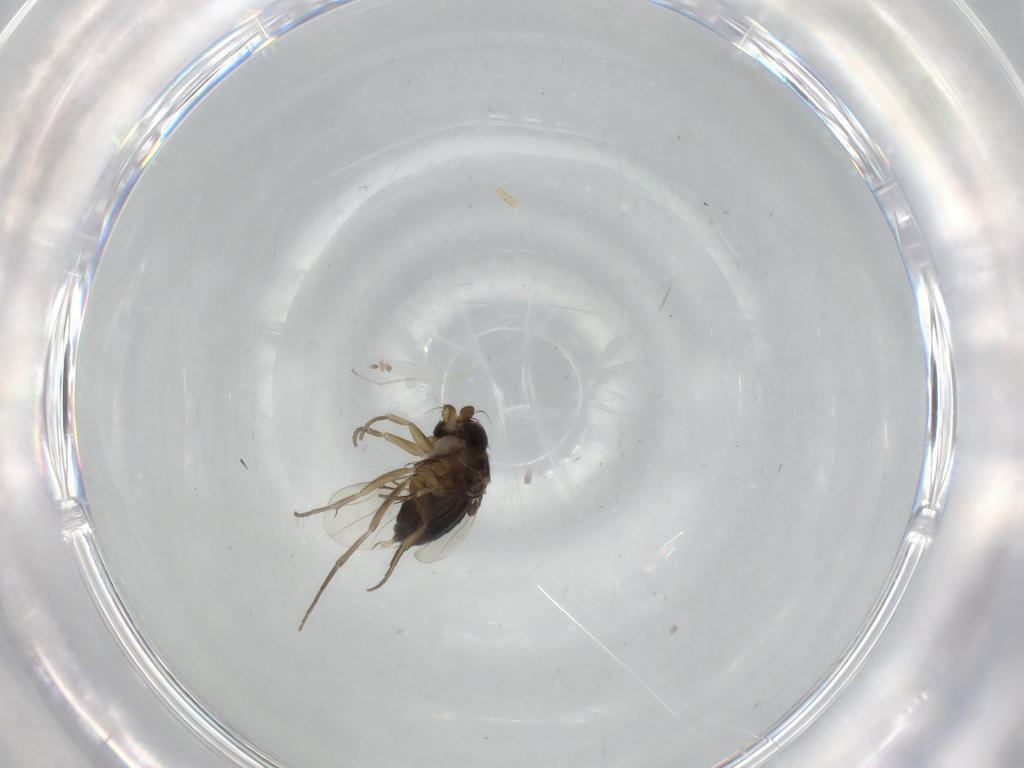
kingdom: Animalia
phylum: Arthropoda
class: Insecta
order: Diptera
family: Phoridae
